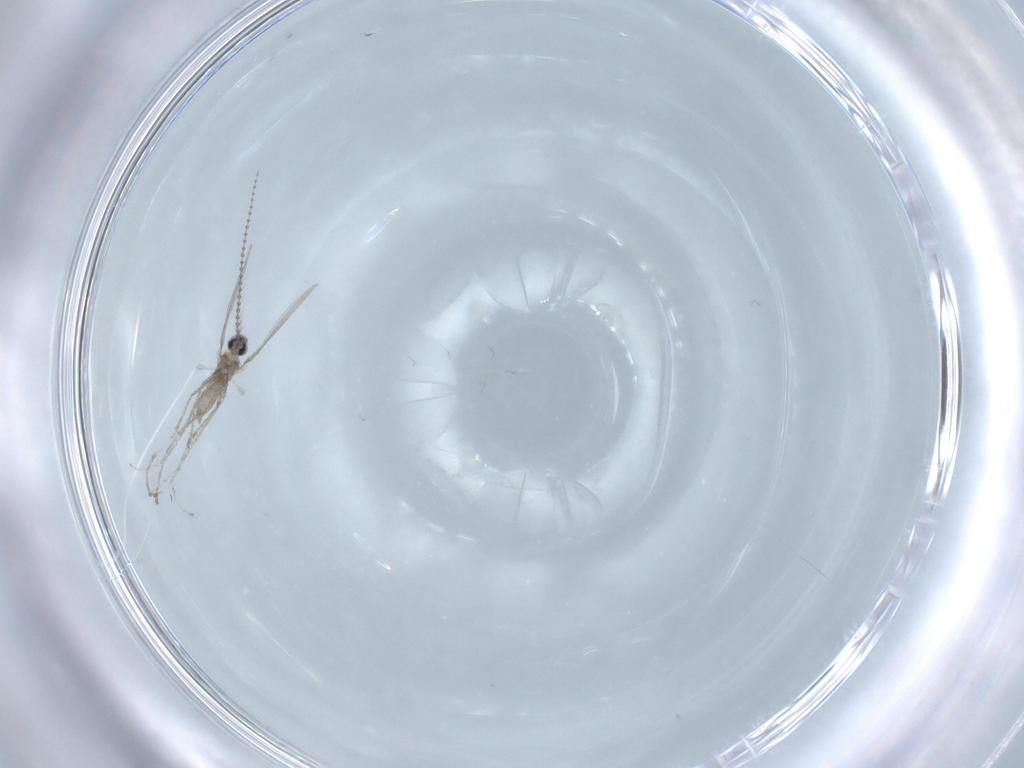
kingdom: Animalia
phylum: Arthropoda
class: Insecta
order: Diptera
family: Cecidomyiidae
